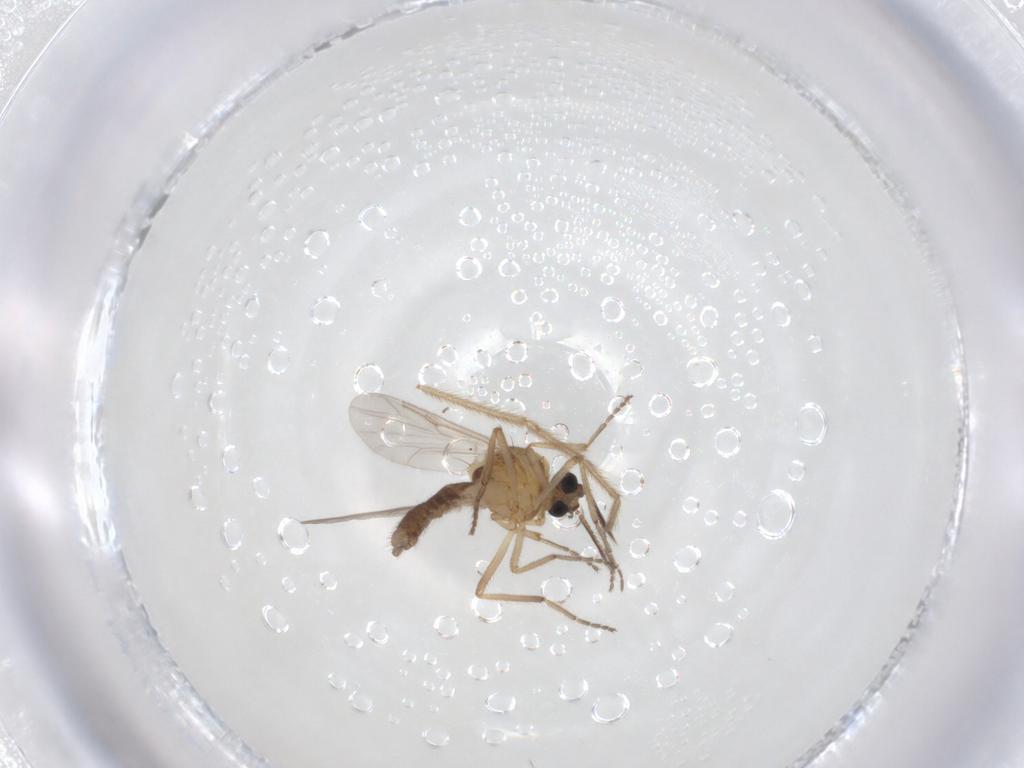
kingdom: Animalia
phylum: Arthropoda
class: Insecta
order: Diptera
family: Ceratopogonidae
